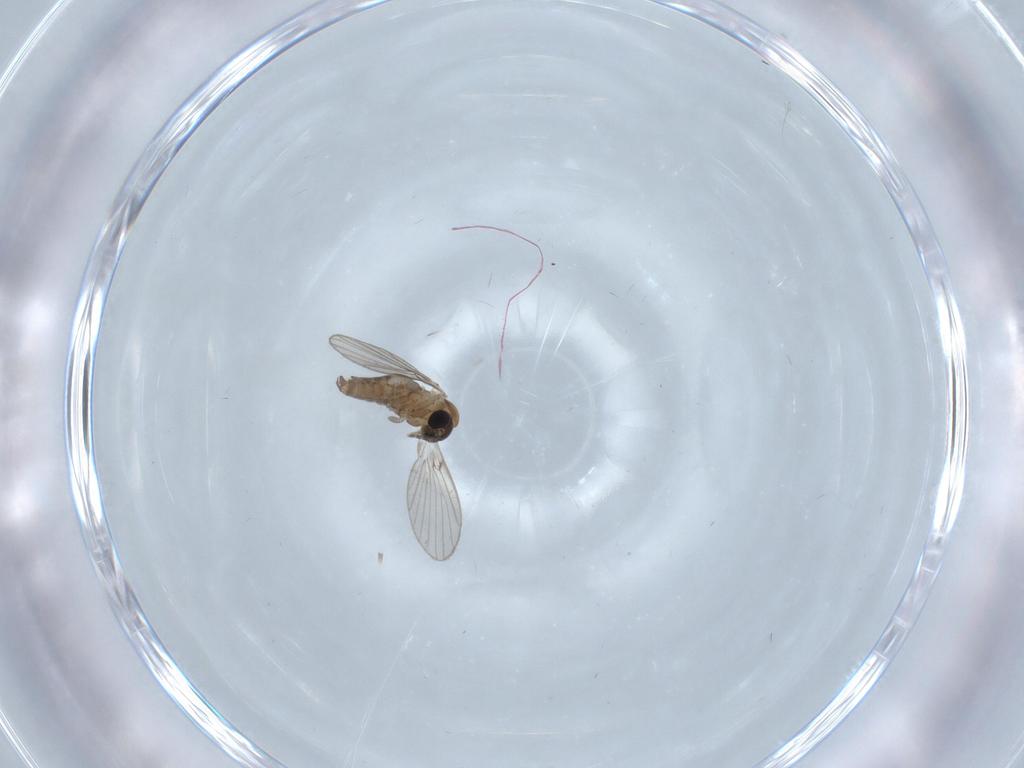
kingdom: Animalia
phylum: Arthropoda
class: Insecta
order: Diptera
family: Psychodidae
